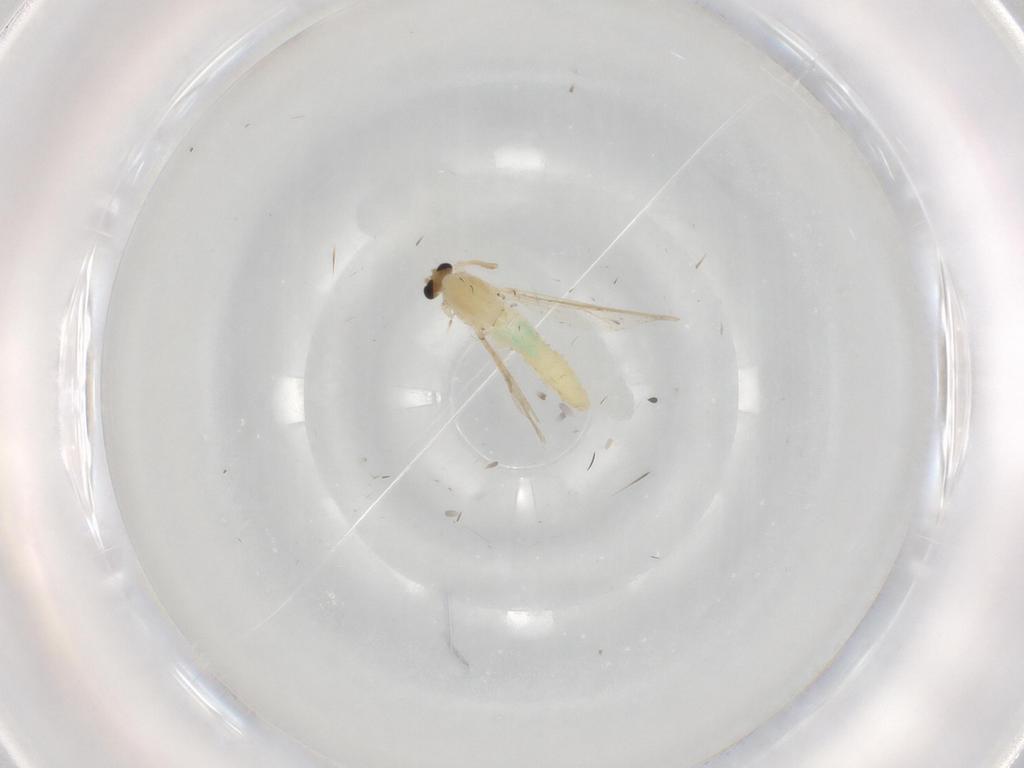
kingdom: Animalia
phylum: Arthropoda
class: Insecta
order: Diptera
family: Chironomidae
